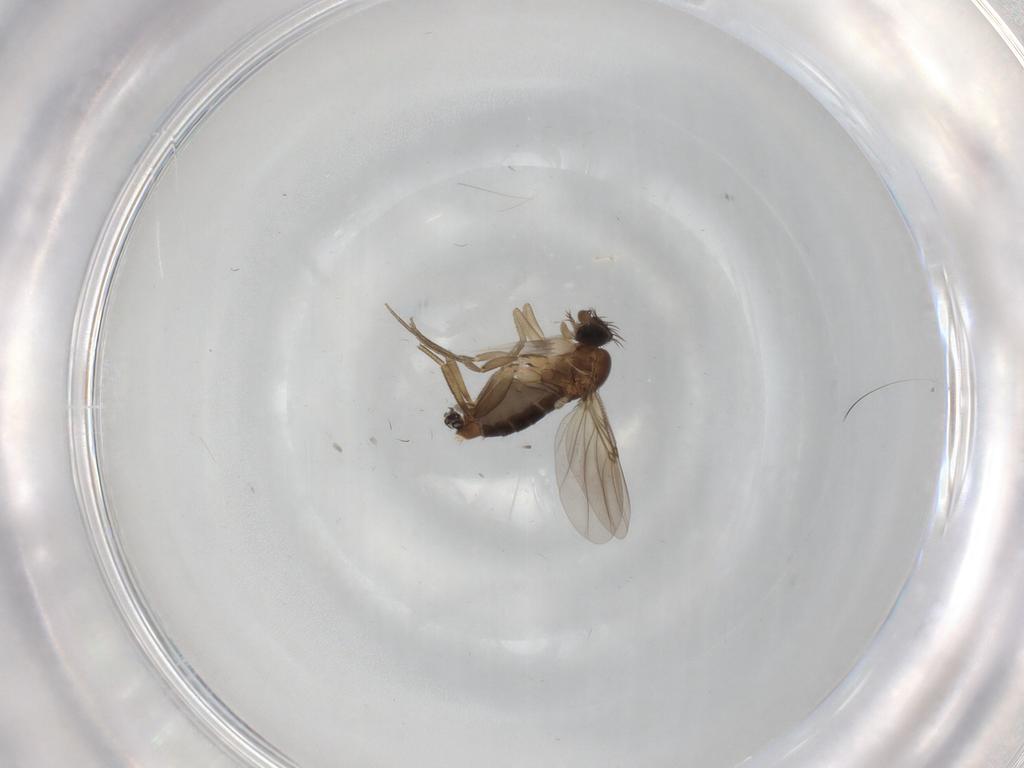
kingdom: Animalia
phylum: Arthropoda
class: Insecta
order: Diptera
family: Phoridae
